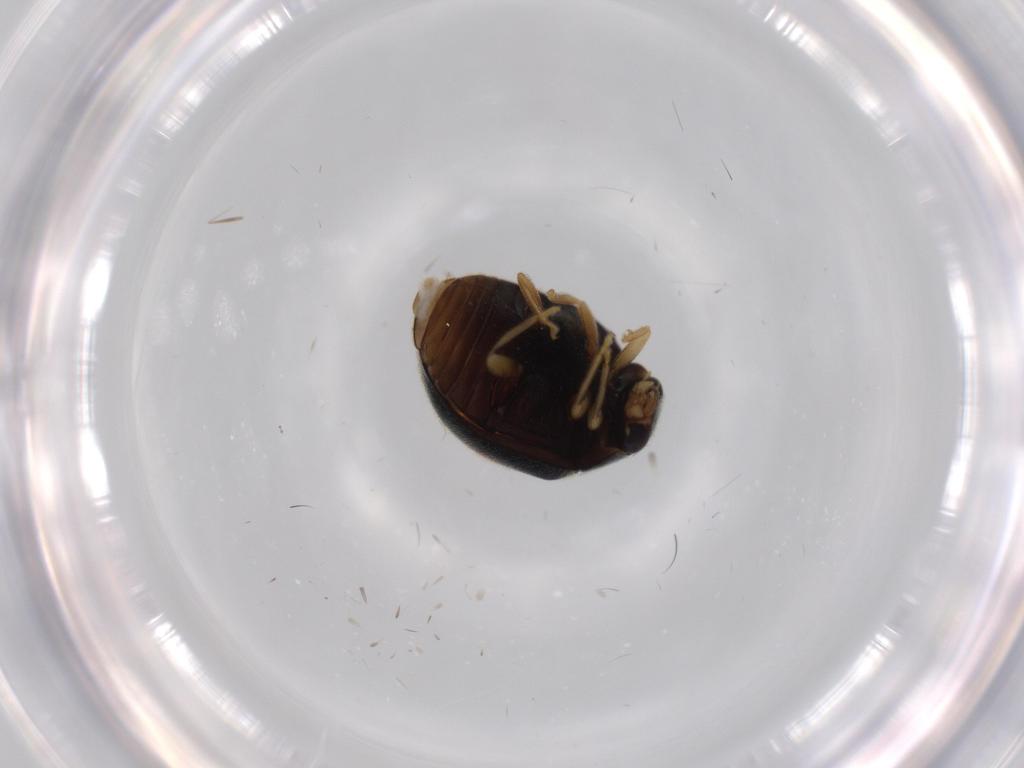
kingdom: Animalia
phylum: Arthropoda
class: Insecta
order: Coleoptera
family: Coccinellidae
